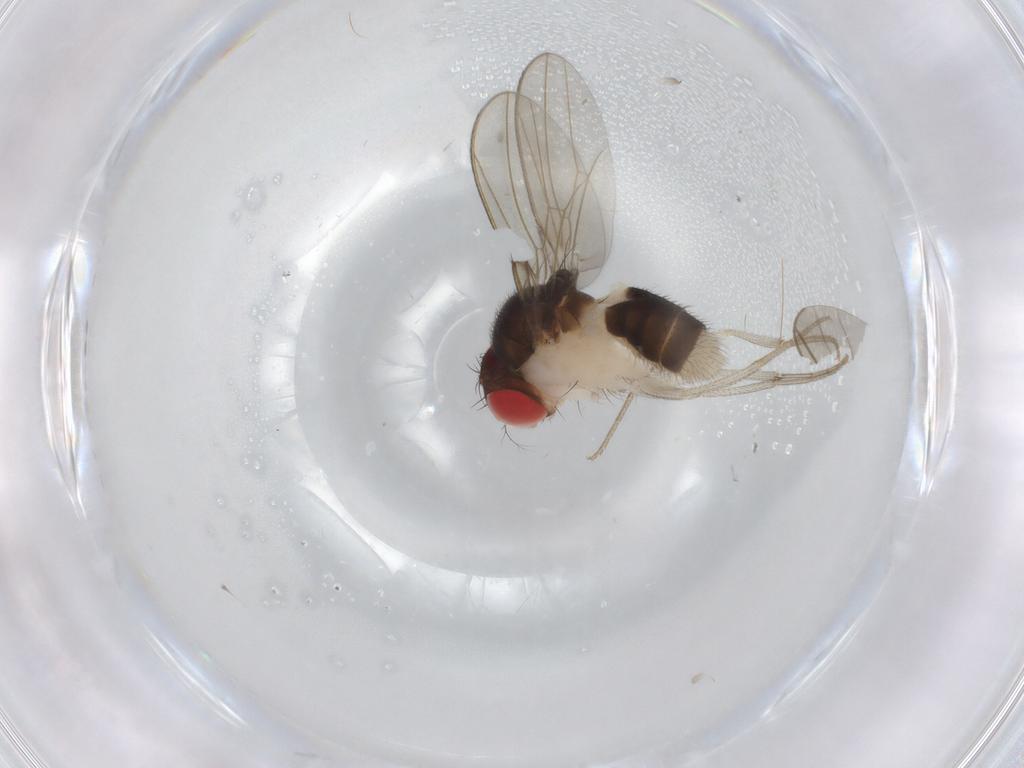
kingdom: Animalia
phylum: Arthropoda
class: Insecta
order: Diptera
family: Drosophilidae
